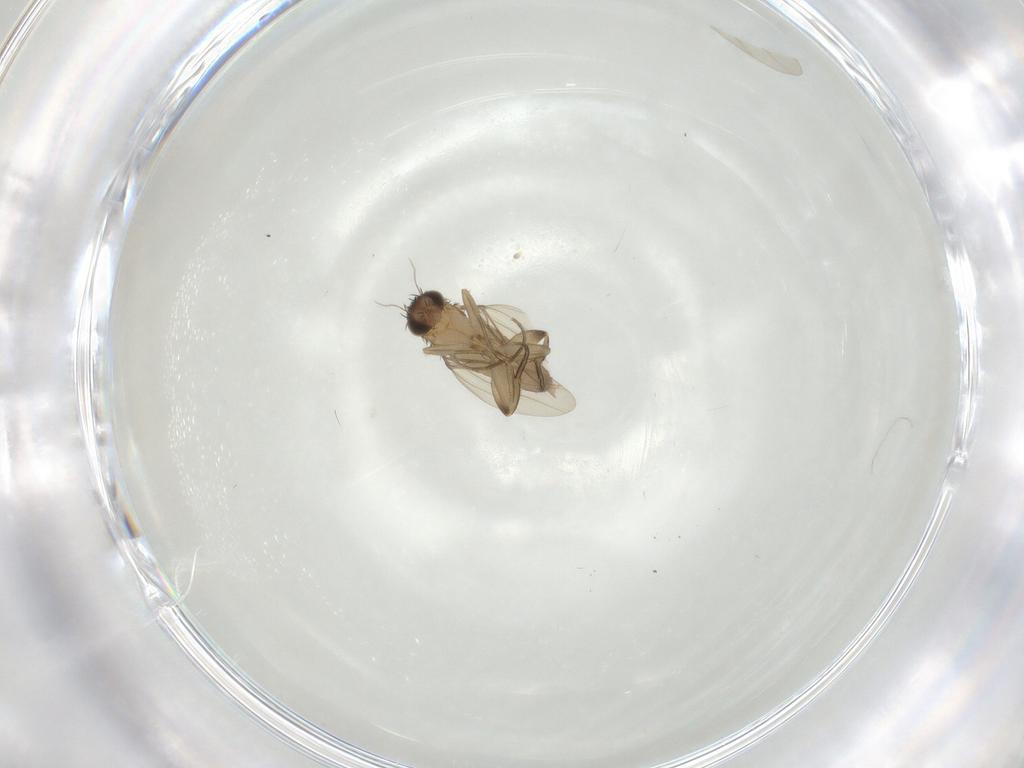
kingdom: Animalia
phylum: Arthropoda
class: Insecta
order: Diptera
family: Phoridae
